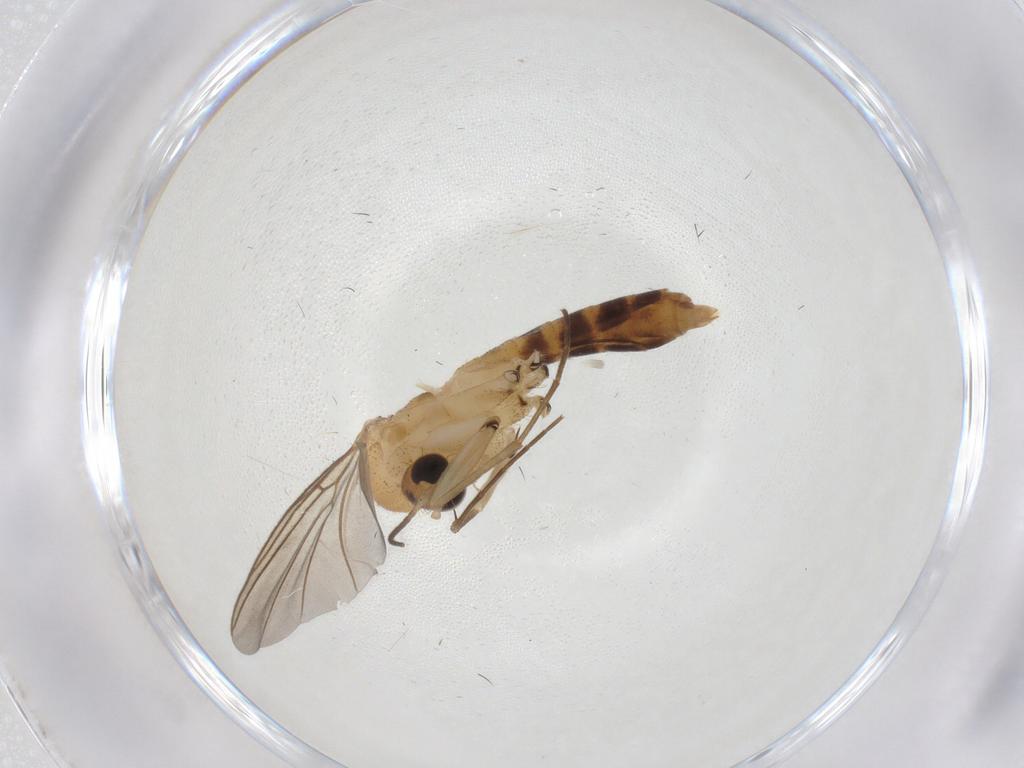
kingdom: Animalia
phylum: Arthropoda
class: Insecta
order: Diptera
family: Mycetophilidae
